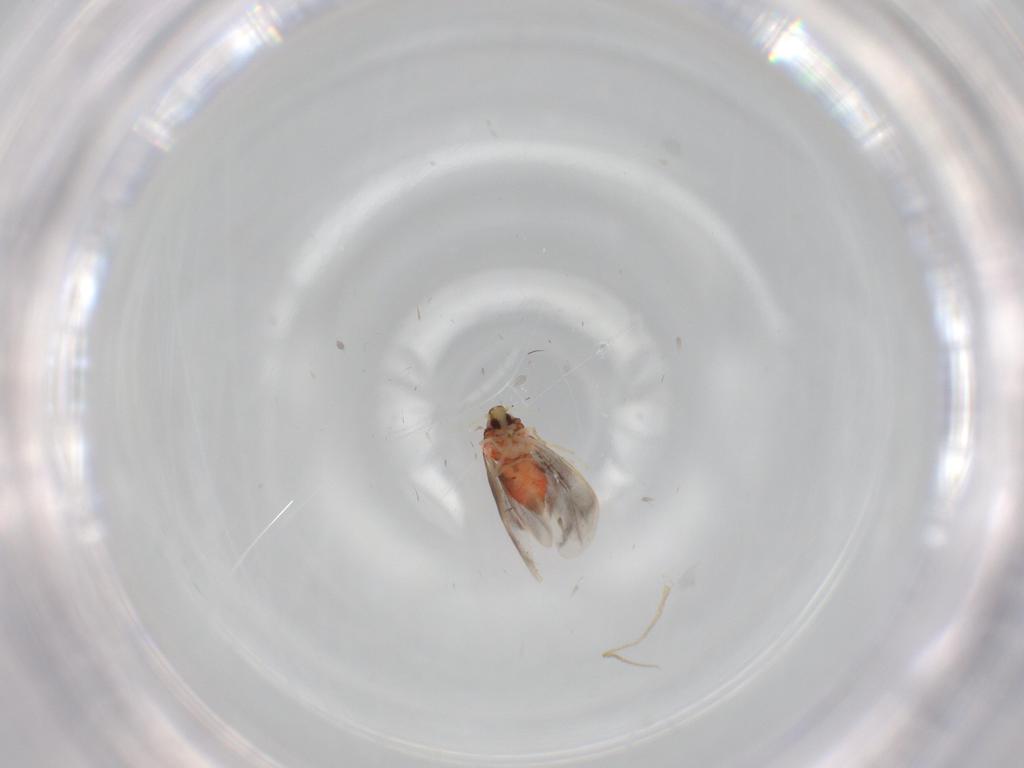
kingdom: Animalia
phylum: Arthropoda
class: Insecta
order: Hemiptera
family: Aleyrodidae
